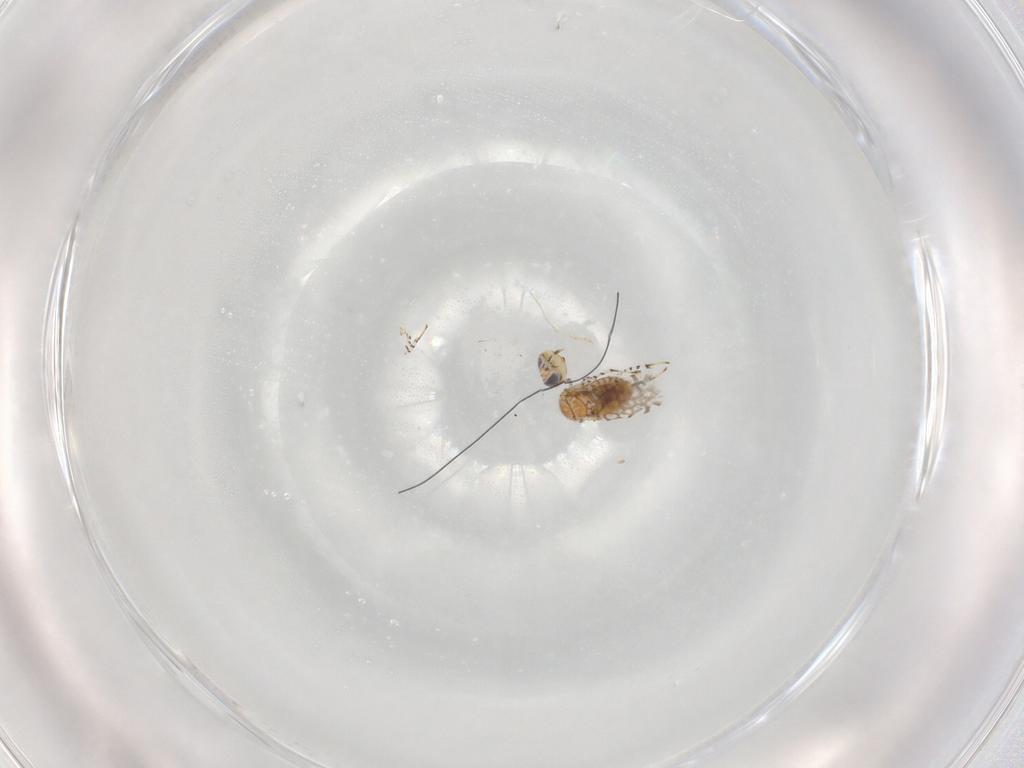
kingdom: Animalia
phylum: Arthropoda
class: Insecta
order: Hymenoptera
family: Aphelinidae
